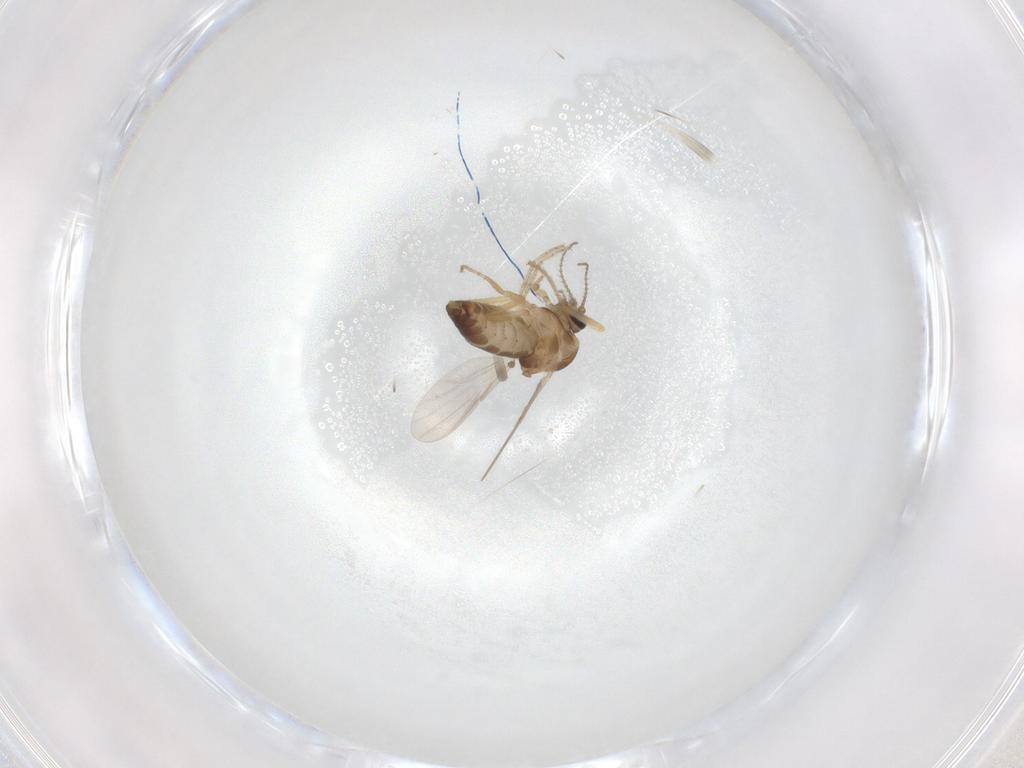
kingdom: Animalia
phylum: Arthropoda
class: Insecta
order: Diptera
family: Ceratopogonidae
